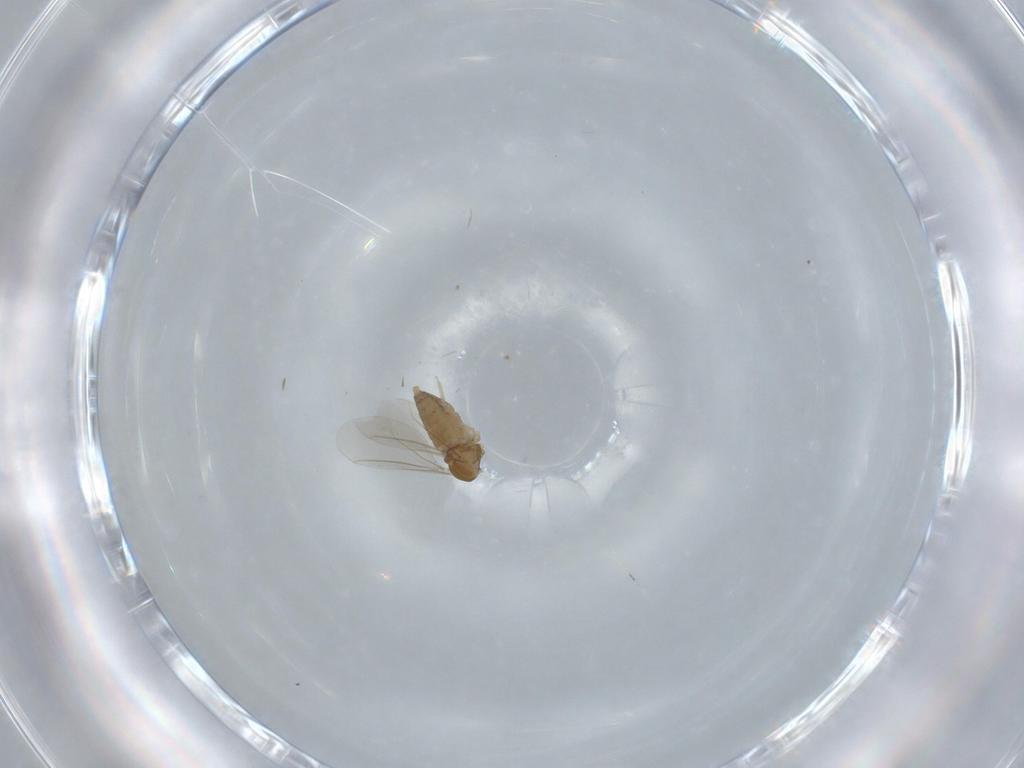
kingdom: Animalia
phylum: Arthropoda
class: Insecta
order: Diptera
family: Cecidomyiidae
